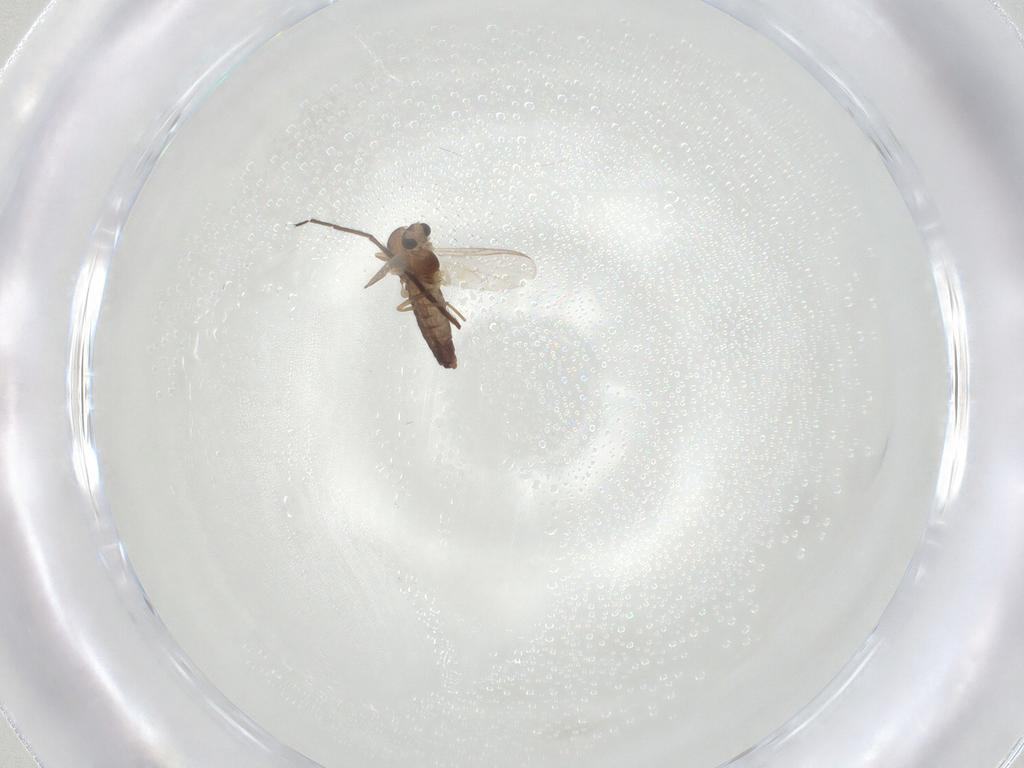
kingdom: Animalia
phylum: Arthropoda
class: Insecta
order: Diptera
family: Chironomidae
